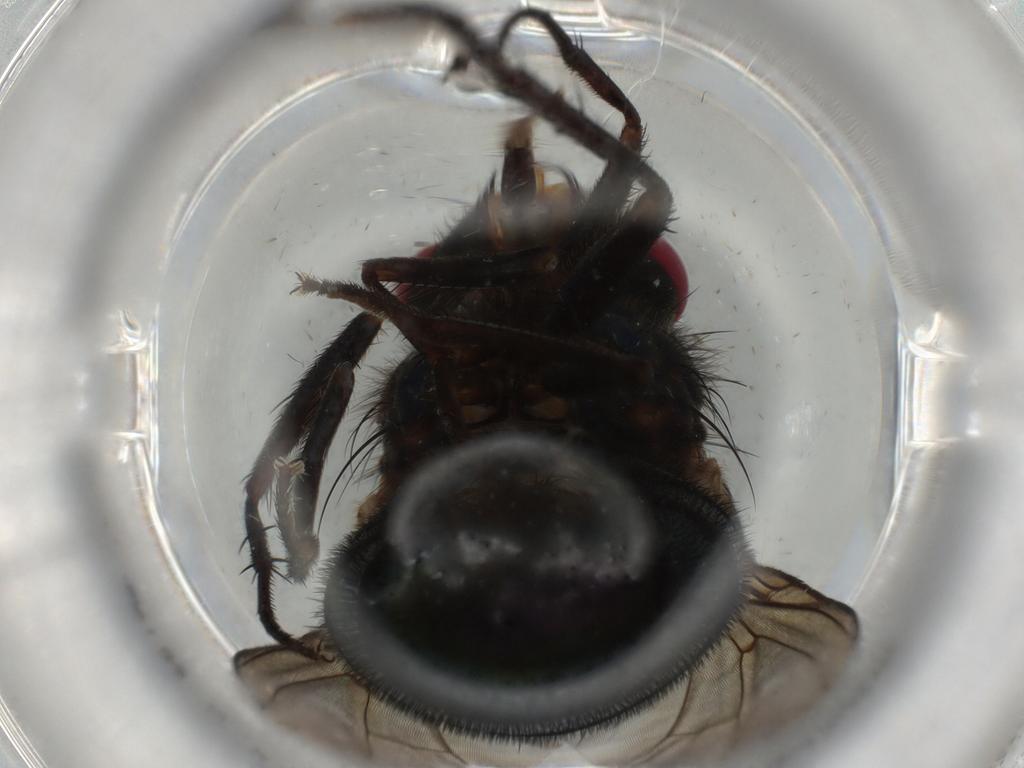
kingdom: Animalia
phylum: Arthropoda
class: Insecta
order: Diptera
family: Calliphoridae
